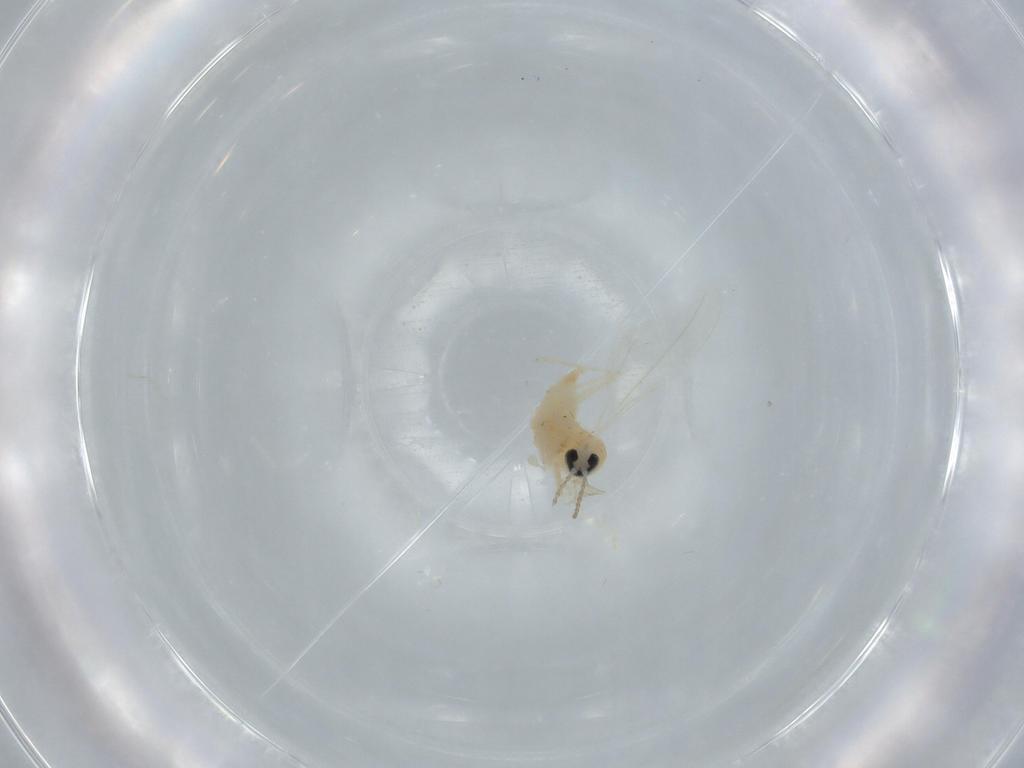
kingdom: Animalia
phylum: Arthropoda
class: Insecta
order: Diptera
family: Cecidomyiidae
